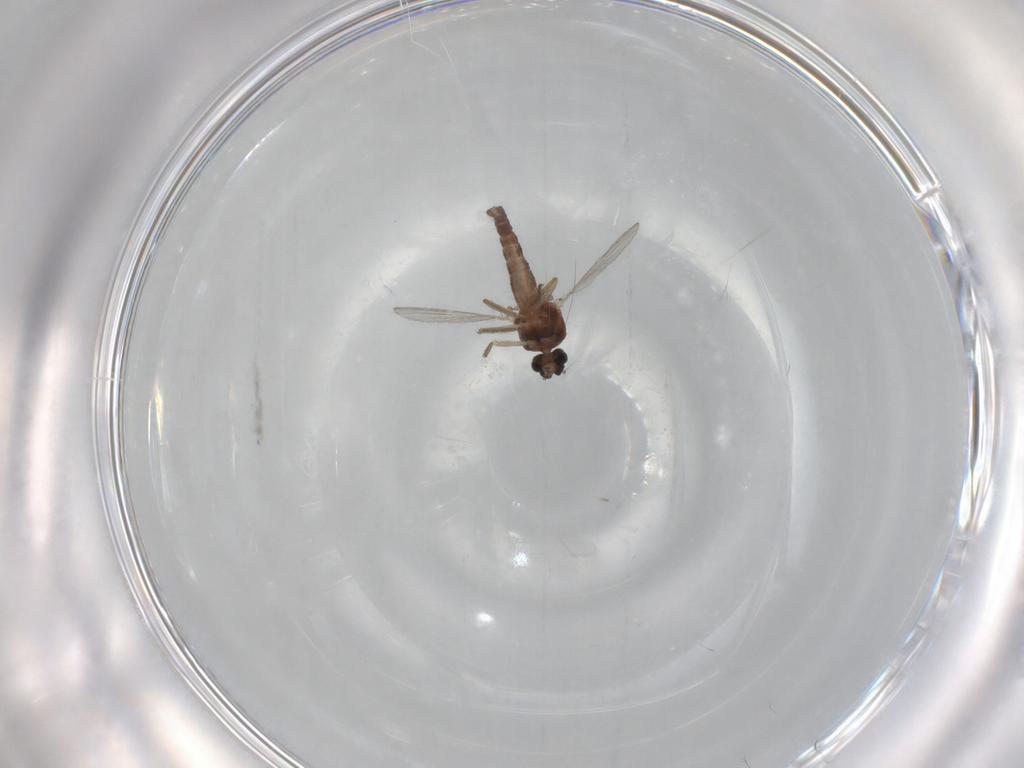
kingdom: Animalia
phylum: Arthropoda
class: Insecta
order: Diptera
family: Ceratopogonidae
